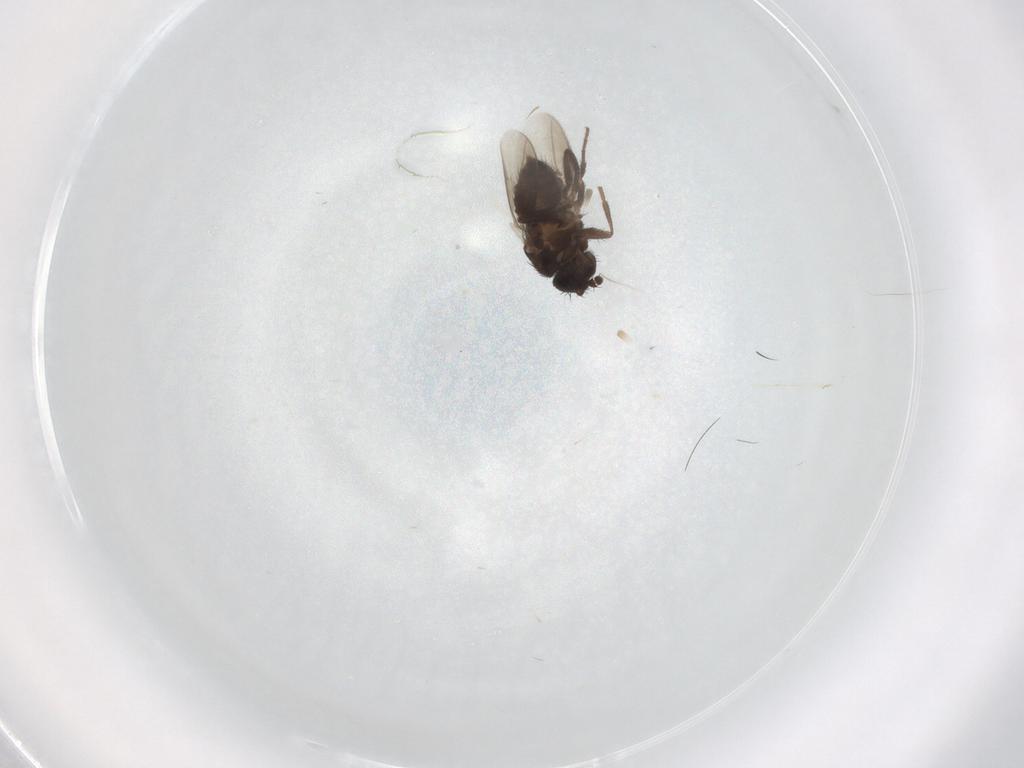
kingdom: Animalia
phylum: Arthropoda
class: Insecta
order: Diptera
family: Sphaeroceridae
